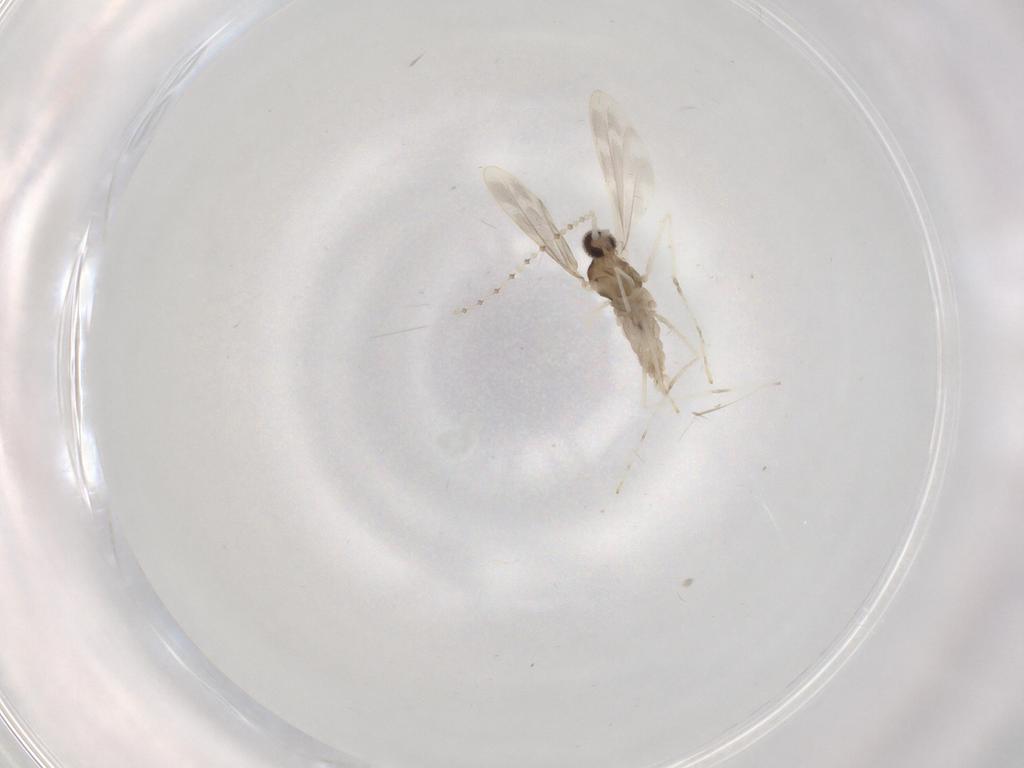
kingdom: Animalia
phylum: Arthropoda
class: Insecta
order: Diptera
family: Cecidomyiidae
